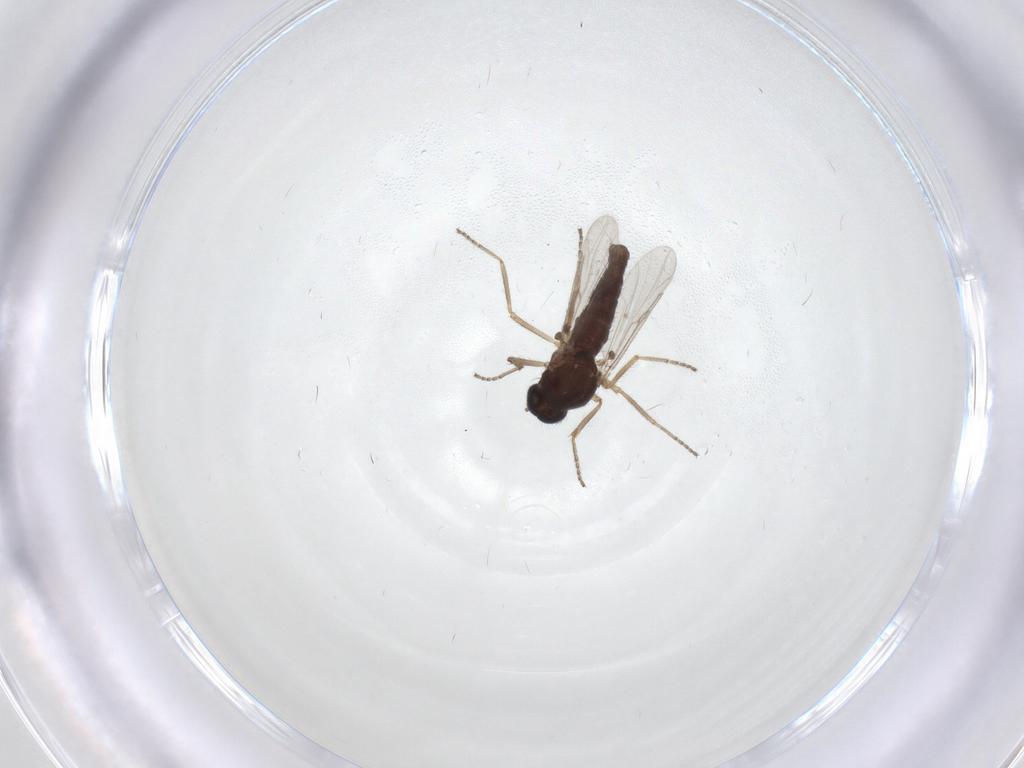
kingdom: Animalia
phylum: Arthropoda
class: Insecta
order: Diptera
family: Ceratopogonidae
